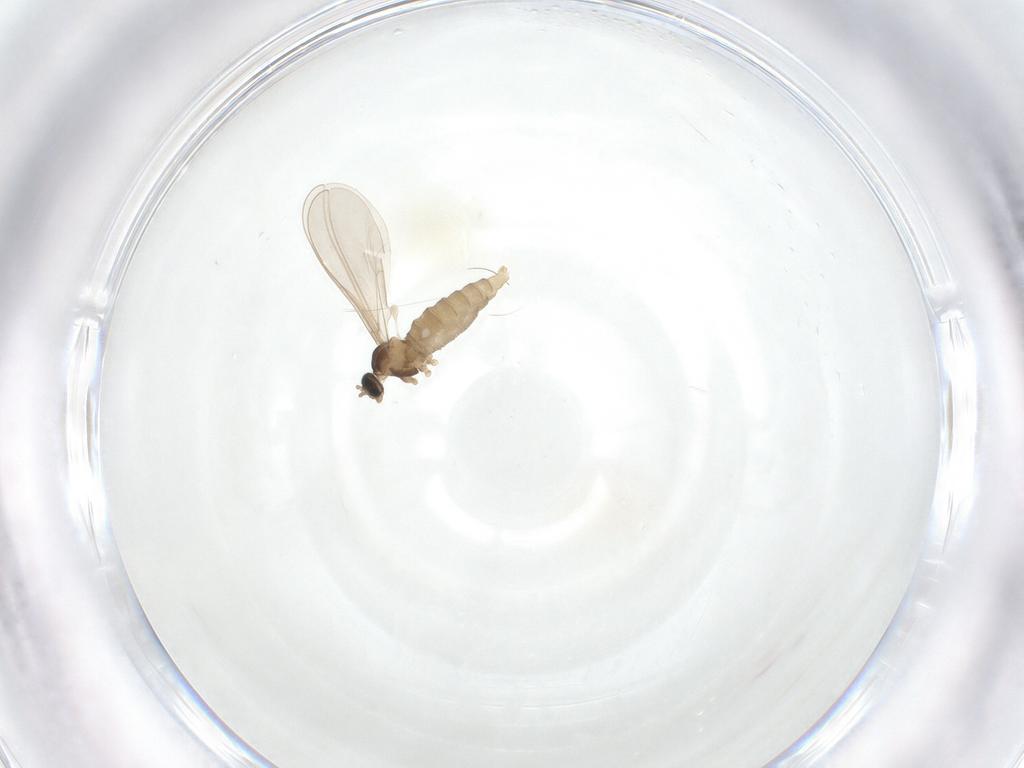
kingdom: Animalia
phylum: Arthropoda
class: Insecta
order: Diptera
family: Cecidomyiidae
